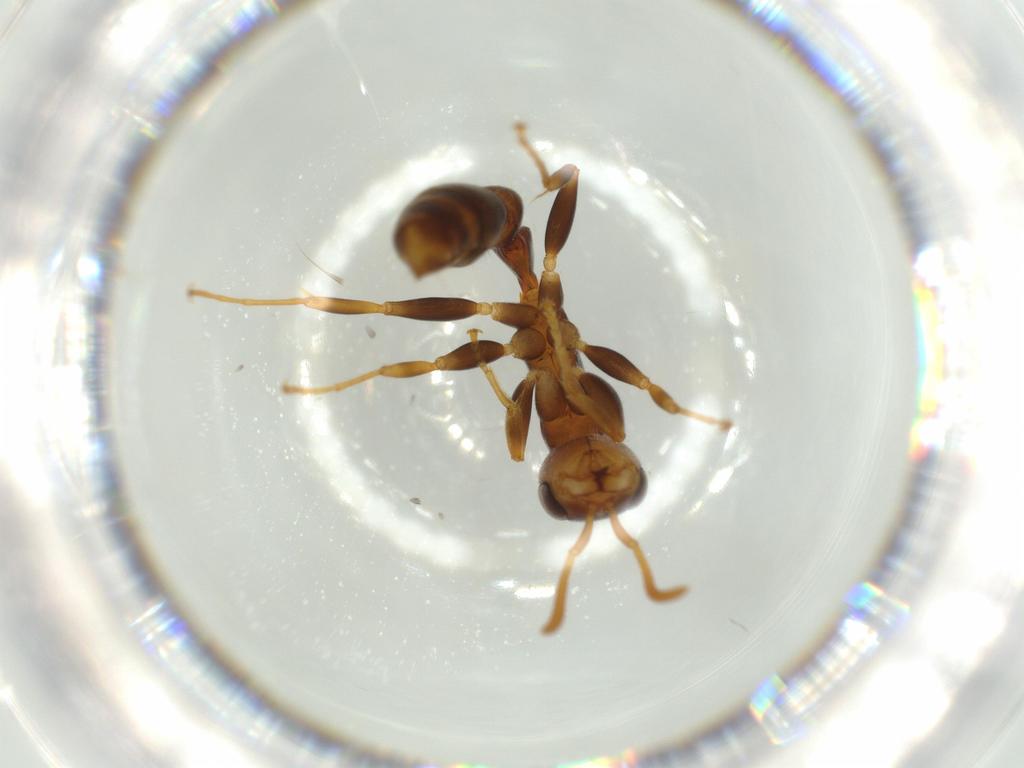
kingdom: Animalia
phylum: Arthropoda
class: Insecta
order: Hymenoptera
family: Formicidae
